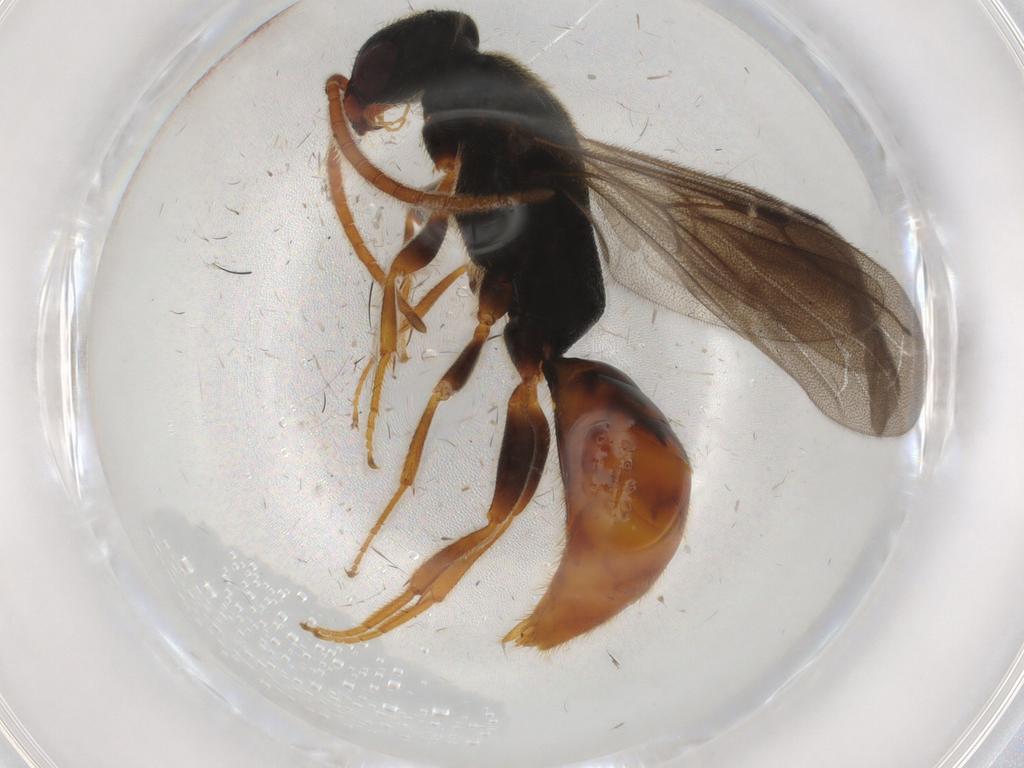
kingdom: Animalia
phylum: Arthropoda
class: Insecta
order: Hymenoptera
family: Bethylidae
